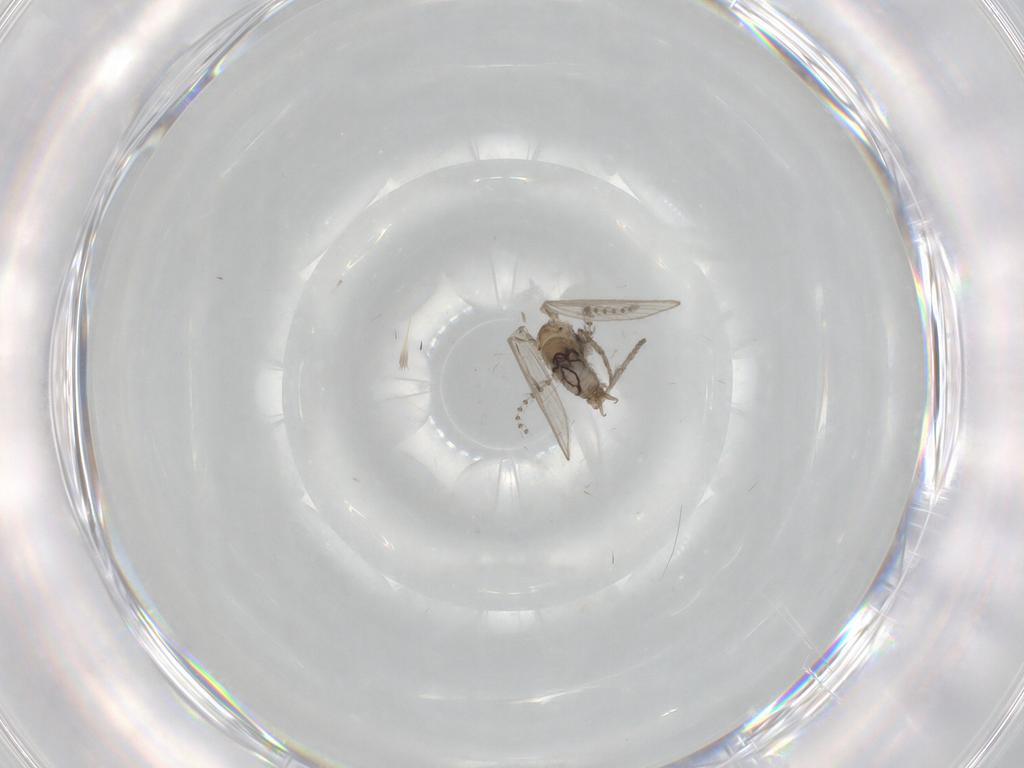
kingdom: Animalia
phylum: Arthropoda
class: Insecta
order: Diptera
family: Psychodidae
